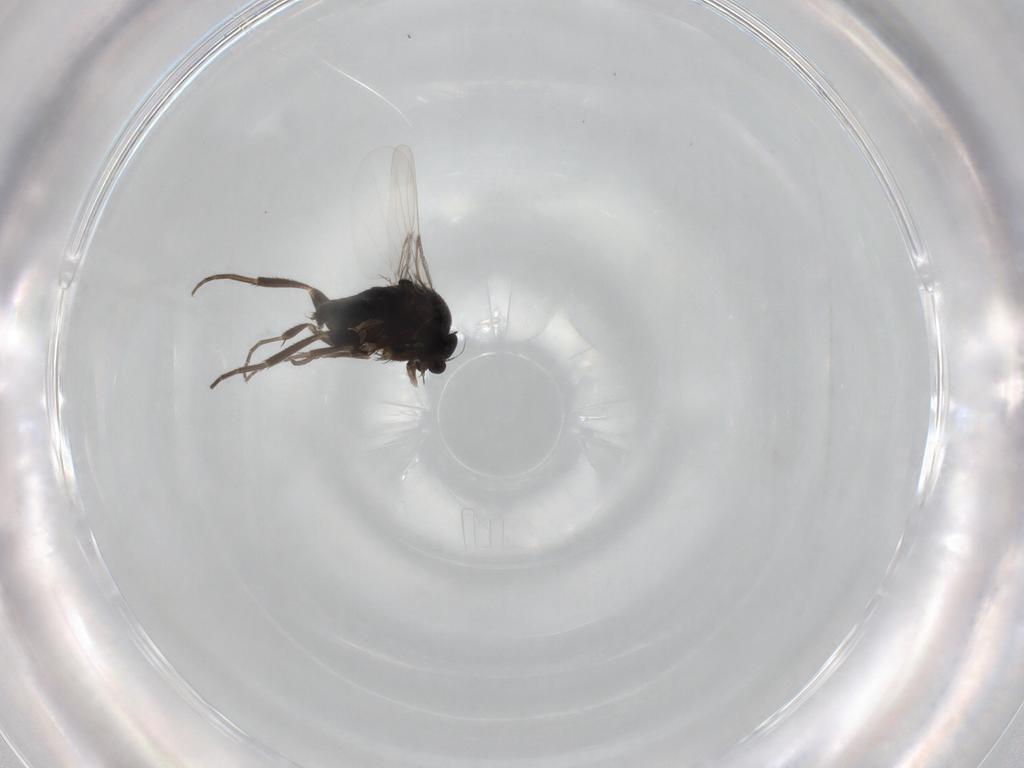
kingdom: Animalia
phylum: Arthropoda
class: Insecta
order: Diptera
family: Phoridae
